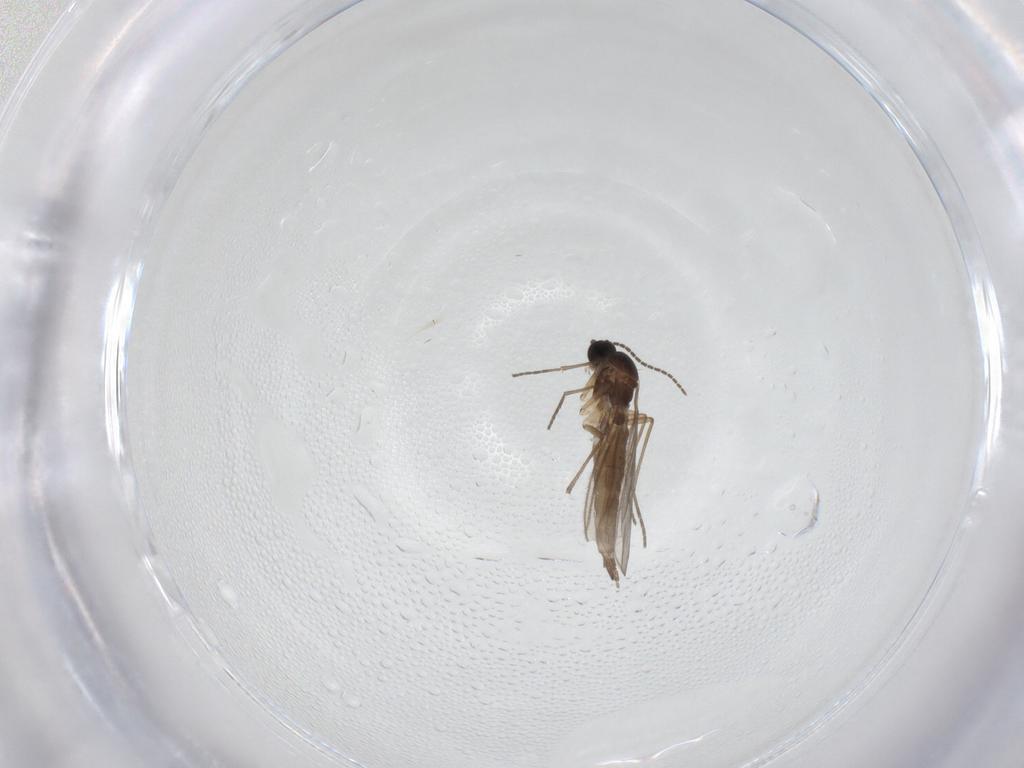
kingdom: Animalia
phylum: Arthropoda
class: Insecta
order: Diptera
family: Sciaridae
